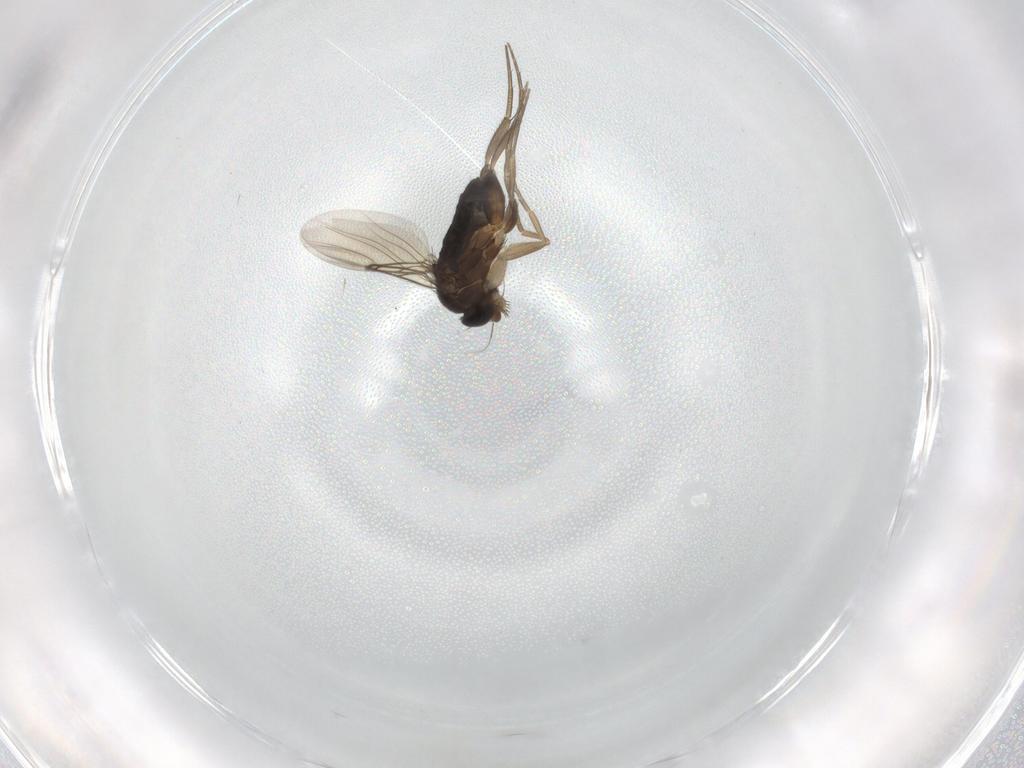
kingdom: Animalia
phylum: Arthropoda
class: Insecta
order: Diptera
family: Phoridae
